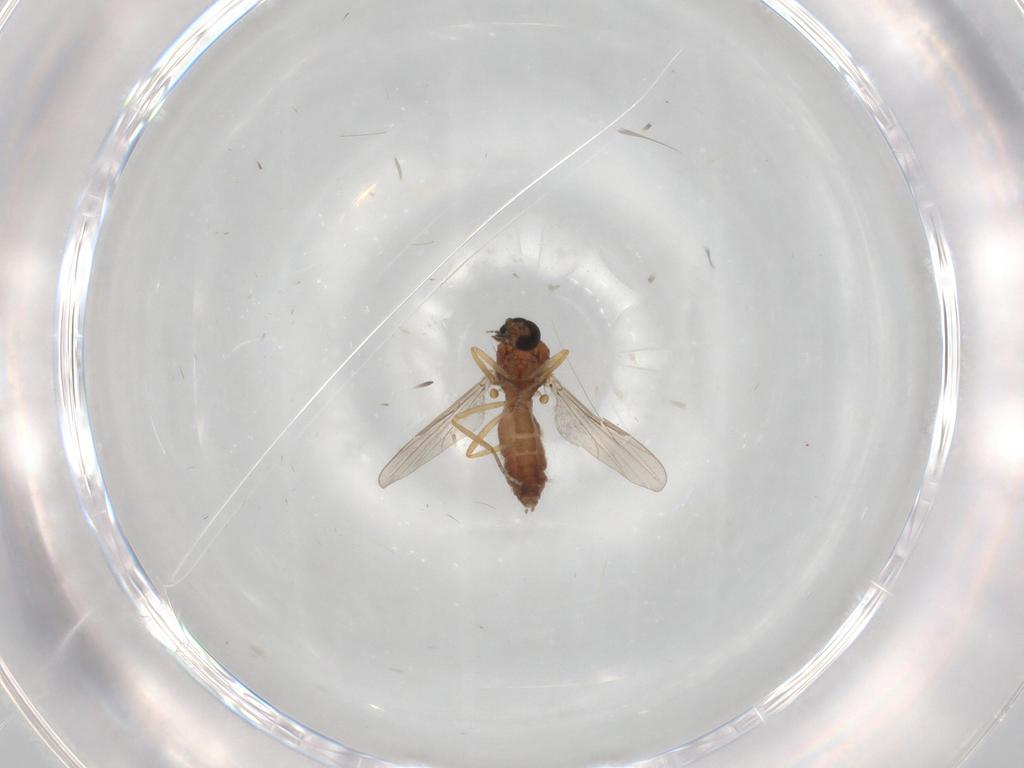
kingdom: Animalia
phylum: Arthropoda
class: Insecta
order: Diptera
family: Ceratopogonidae
